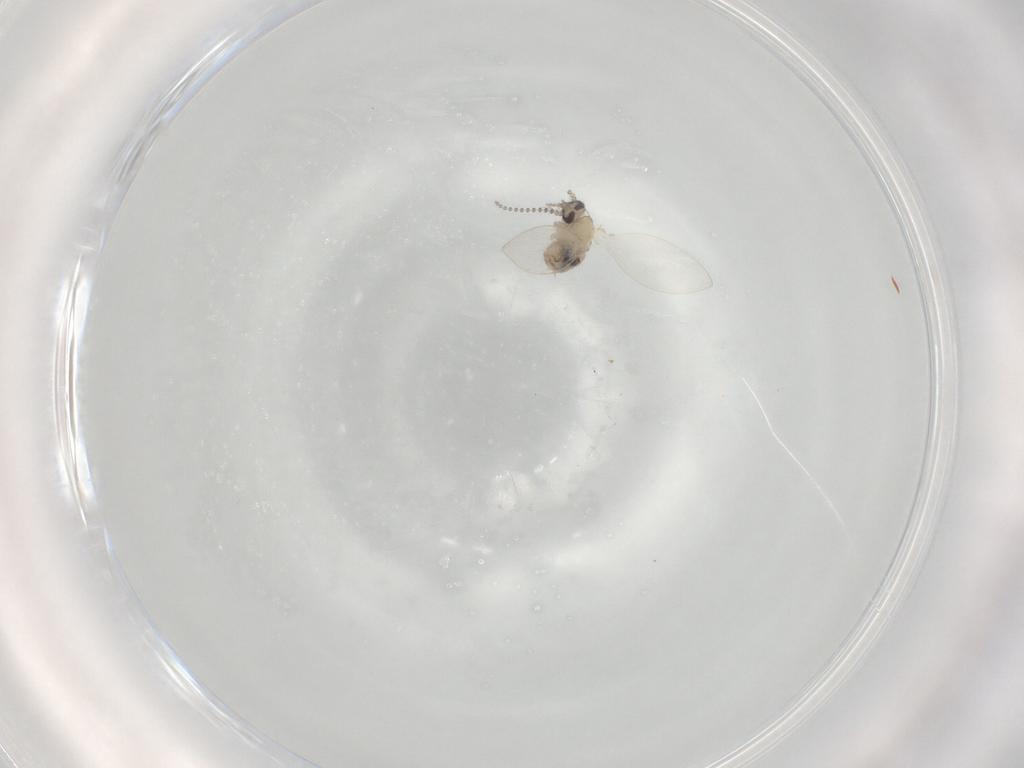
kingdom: Animalia
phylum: Arthropoda
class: Insecta
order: Diptera
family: Psychodidae
